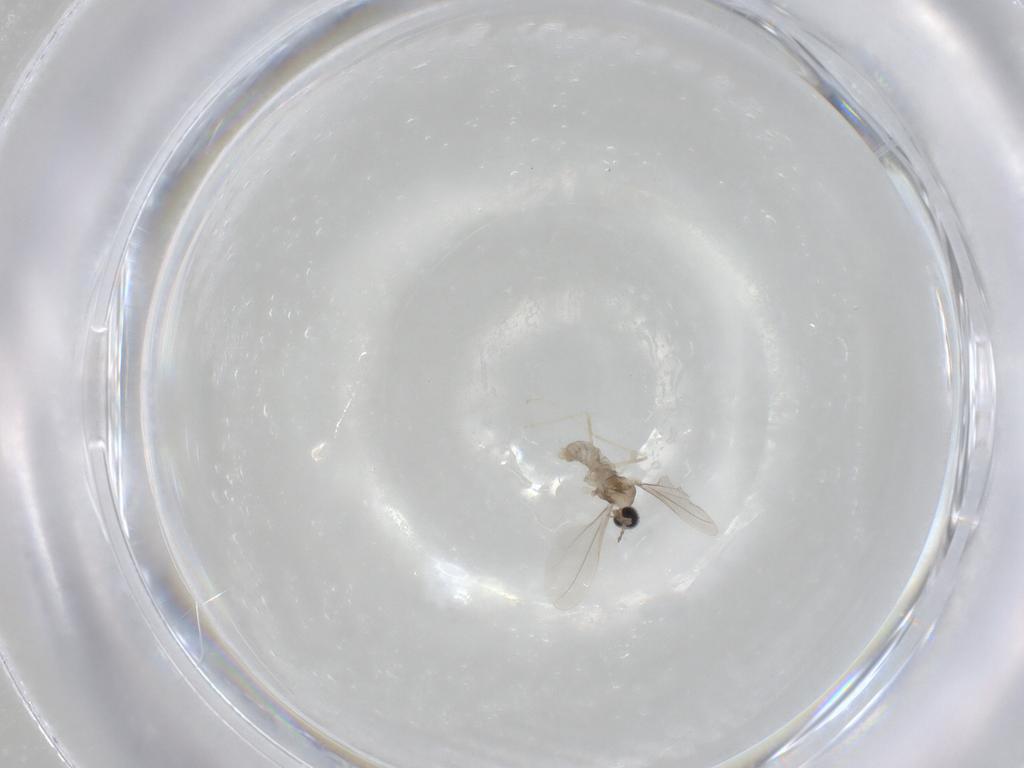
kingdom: Animalia
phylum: Arthropoda
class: Insecta
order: Diptera
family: Cecidomyiidae
